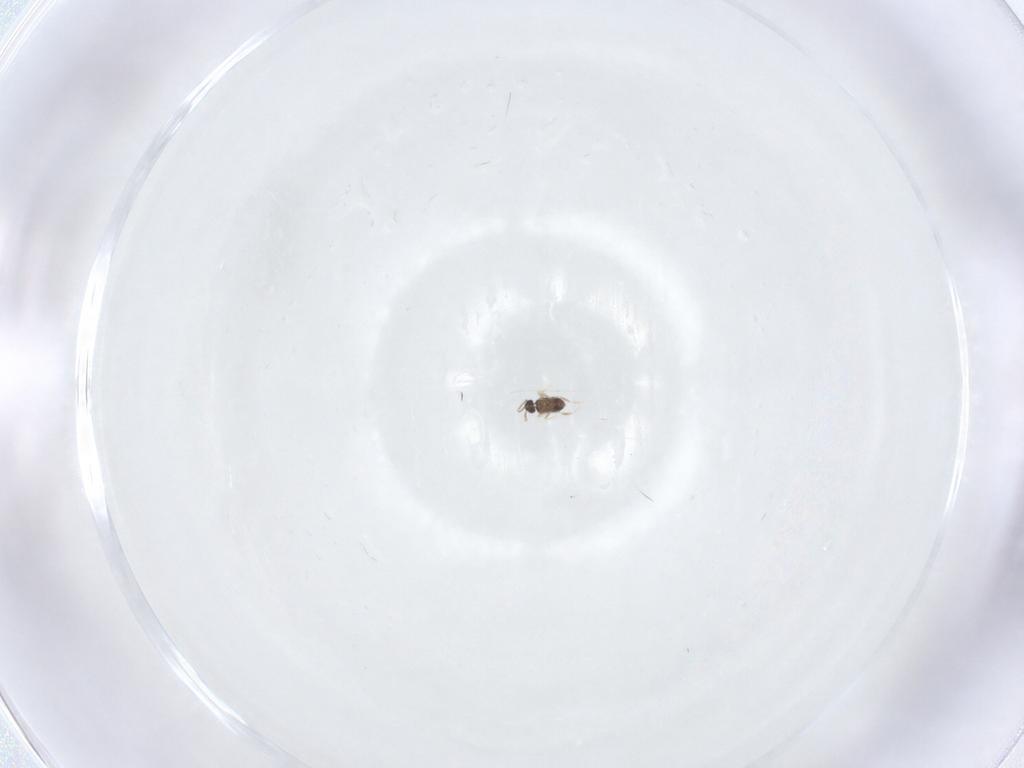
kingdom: Animalia
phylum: Arthropoda
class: Insecta
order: Hymenoptera
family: Mymaridae
